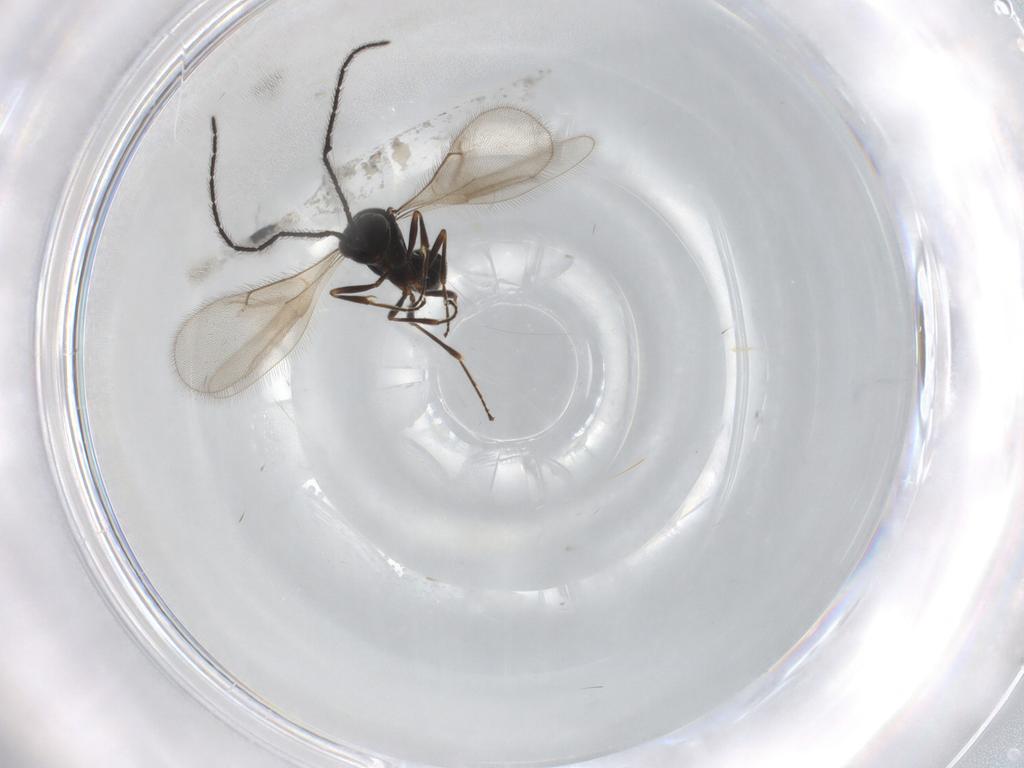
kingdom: Animalia
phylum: Arthropoda
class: Insecta
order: Hymenoptera
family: Scelionidae
